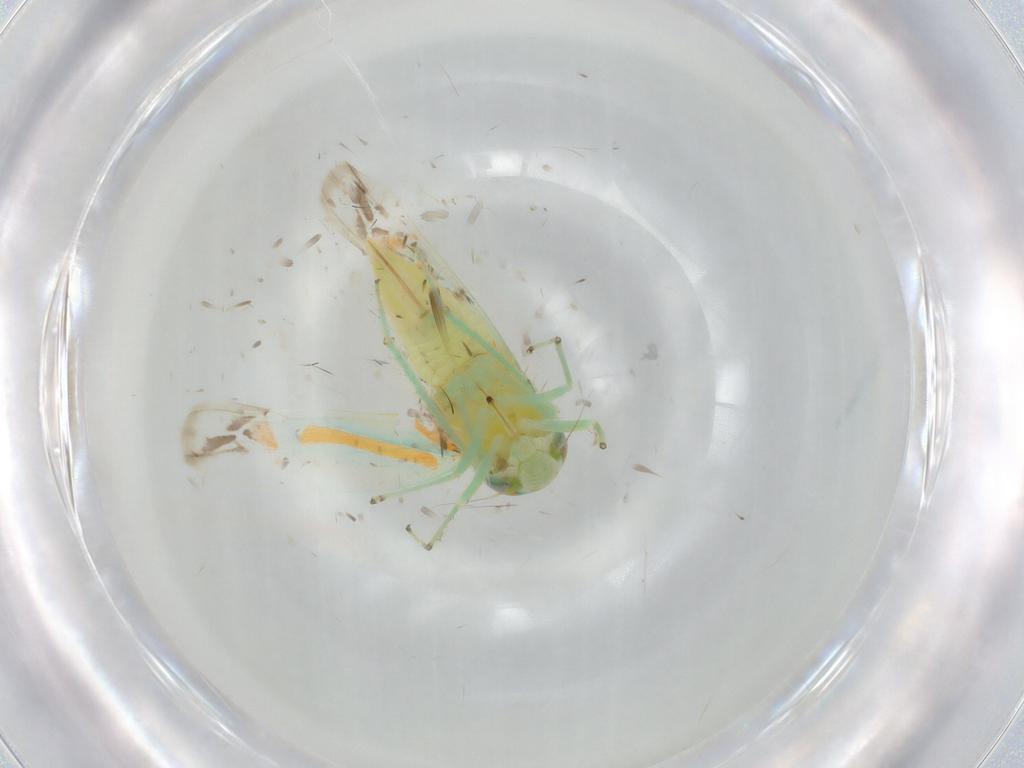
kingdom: Animalia
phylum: Arthropoda
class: Insecta
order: Hemiptera
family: Cicadellidae
